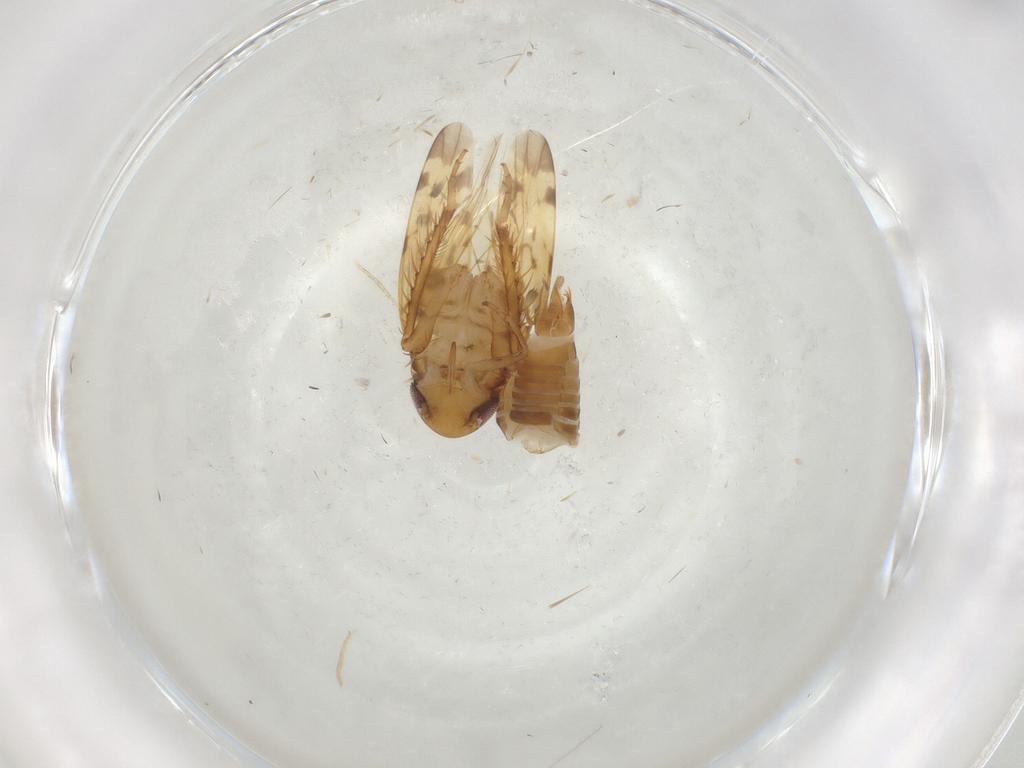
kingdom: Animalia
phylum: Arthropoda
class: Insecta
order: Hemiptera
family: Cicadellidae
